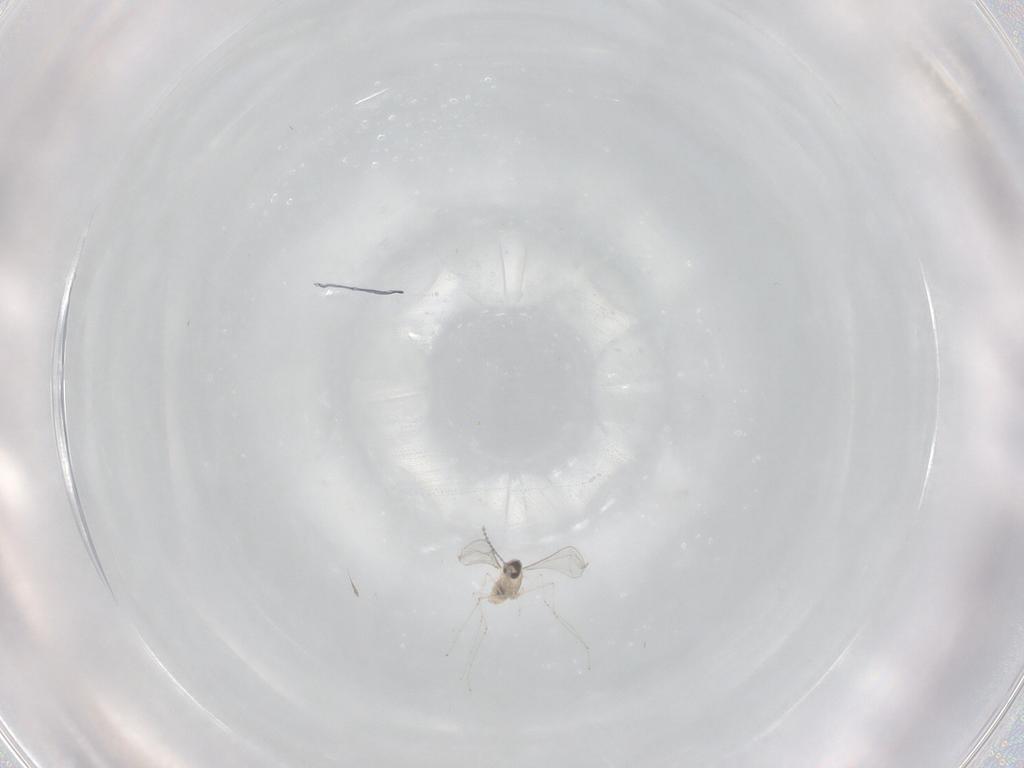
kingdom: Animalia
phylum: Arthropoda
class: Insecta
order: Diptera
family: Cecidomyiidae
